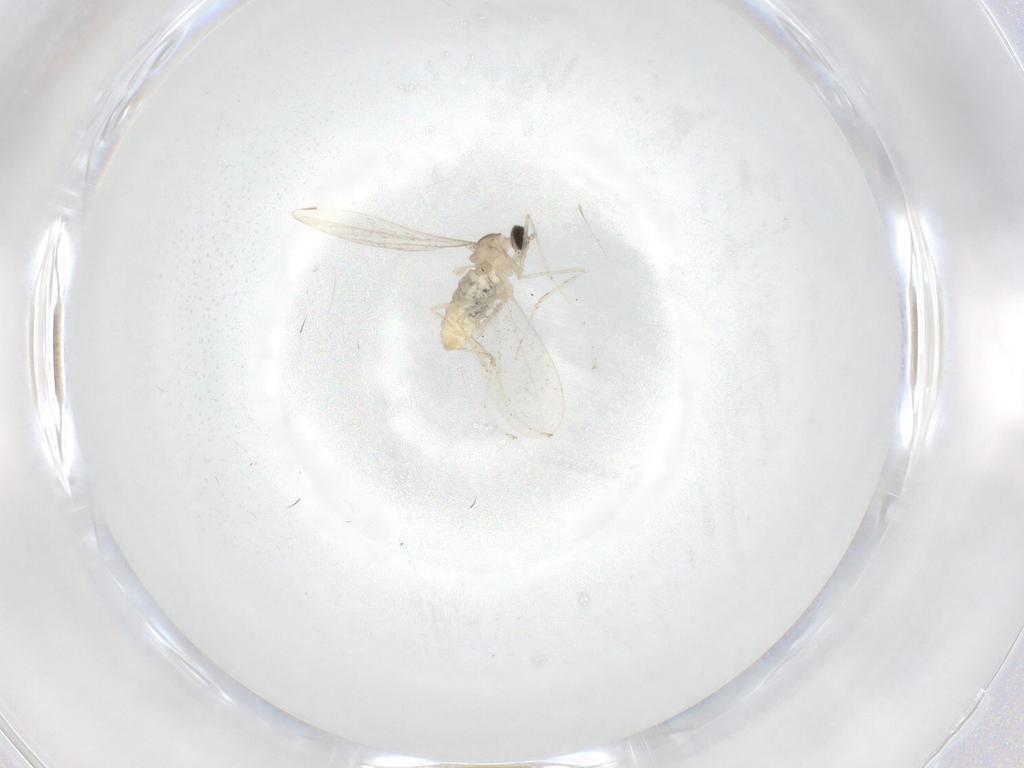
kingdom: Animalia
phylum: Arthropoda
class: Insecta
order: Diptera
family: Cecidomyiidae
